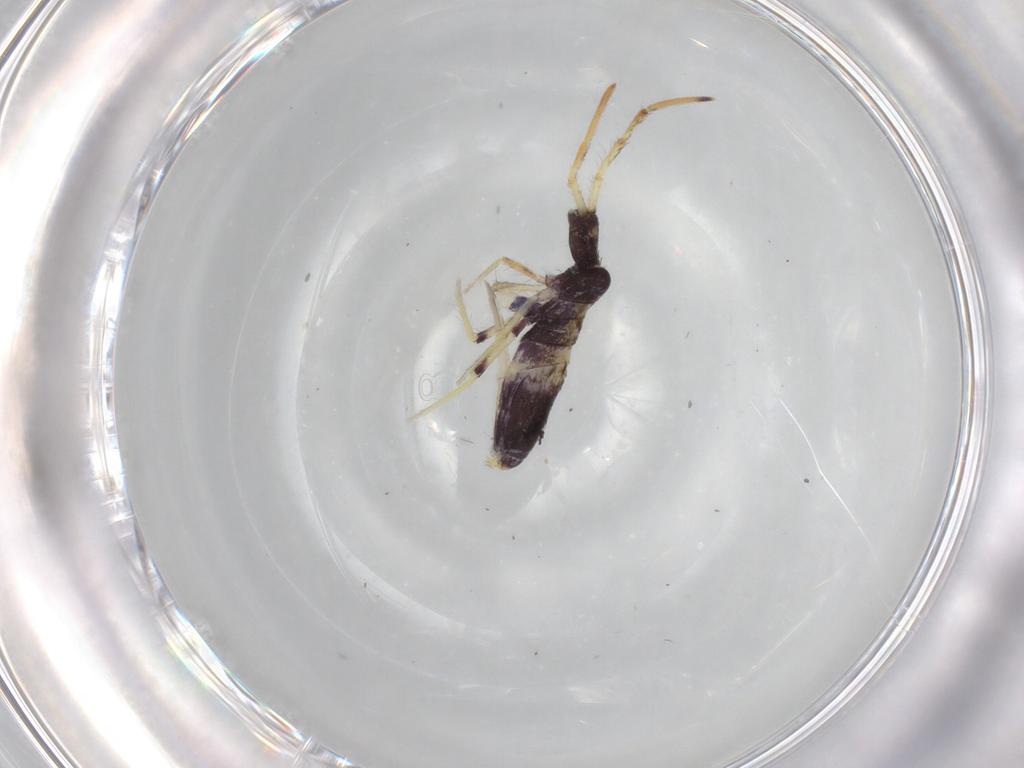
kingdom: Animalia
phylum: Arthropoda
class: Collembola
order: Entomobryomorpha
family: Entomobryidae
